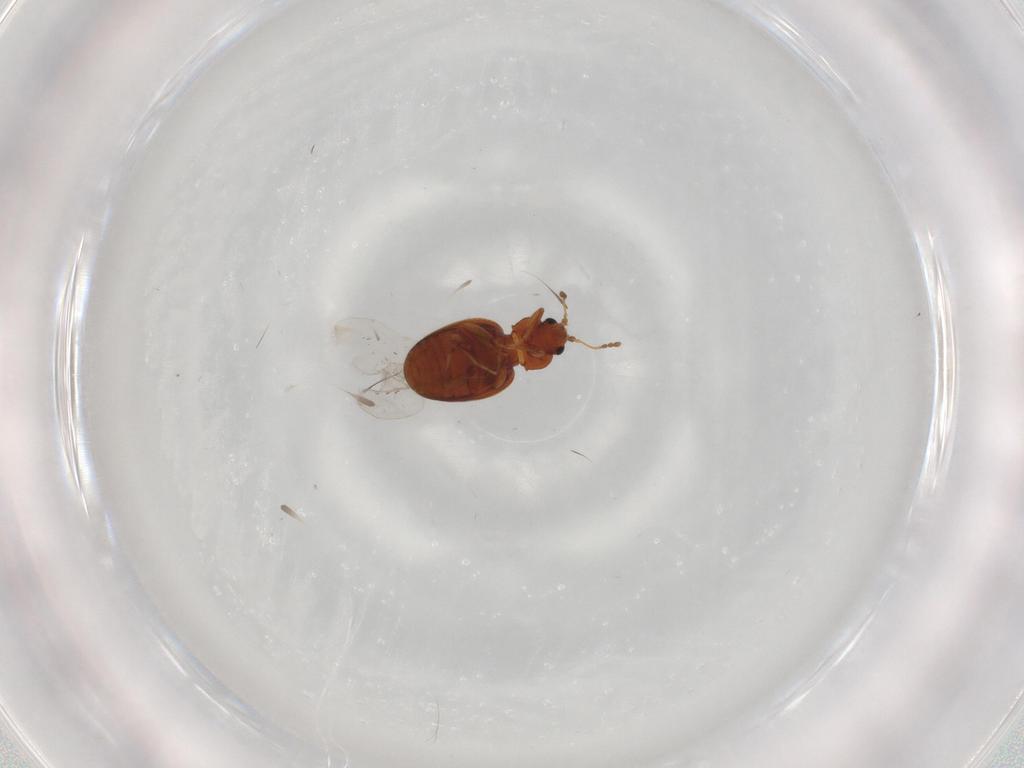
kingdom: Animalia
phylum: Arthropoda
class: Insecta
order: Coleoptera
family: Latridiidae
